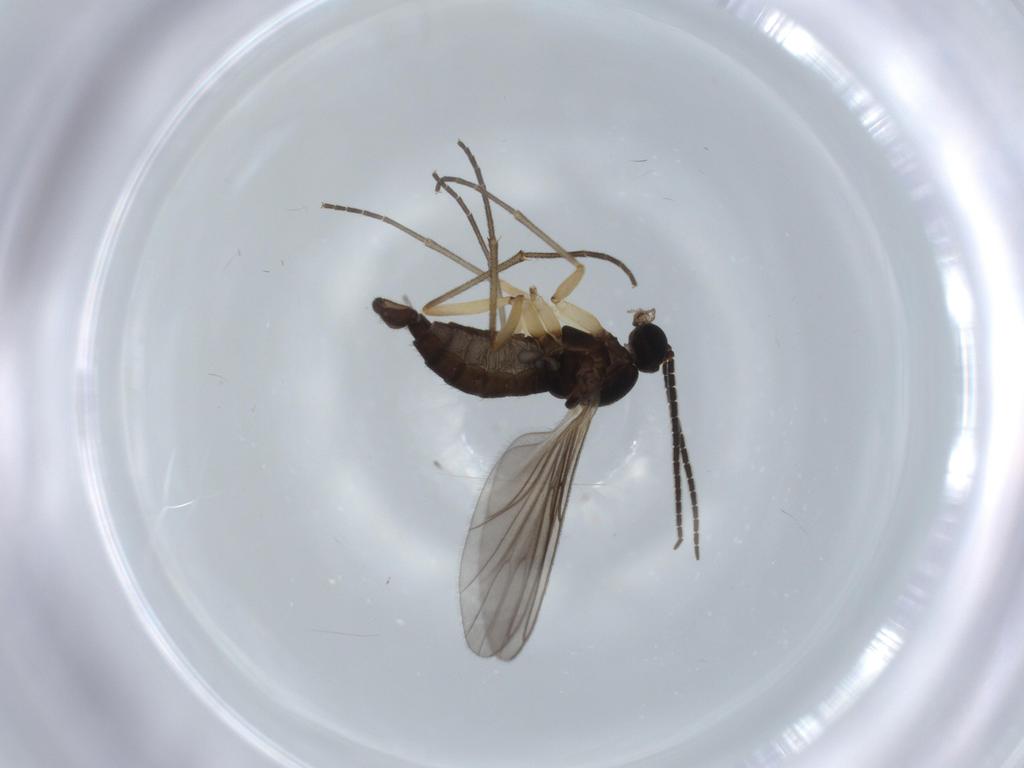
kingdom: Animalia
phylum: Arthropoda
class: Insecta
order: Diptera
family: Sciaridae
